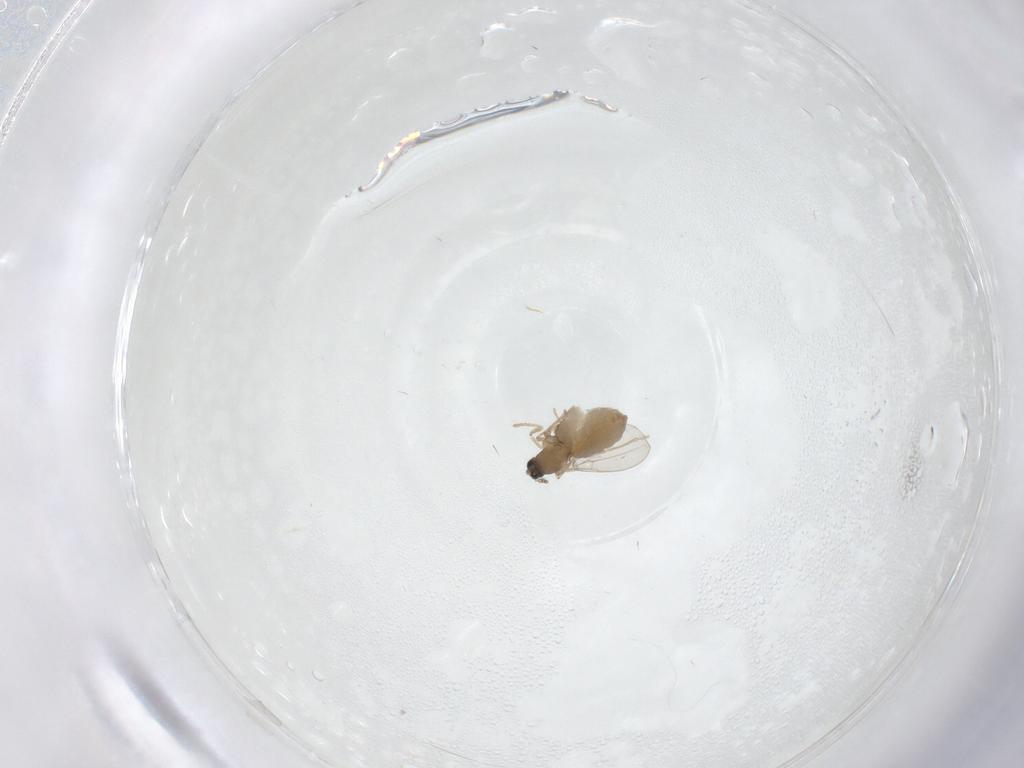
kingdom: Animalia
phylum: Arthropoda
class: Insecta
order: Diptera
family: Cecidomyiidae
